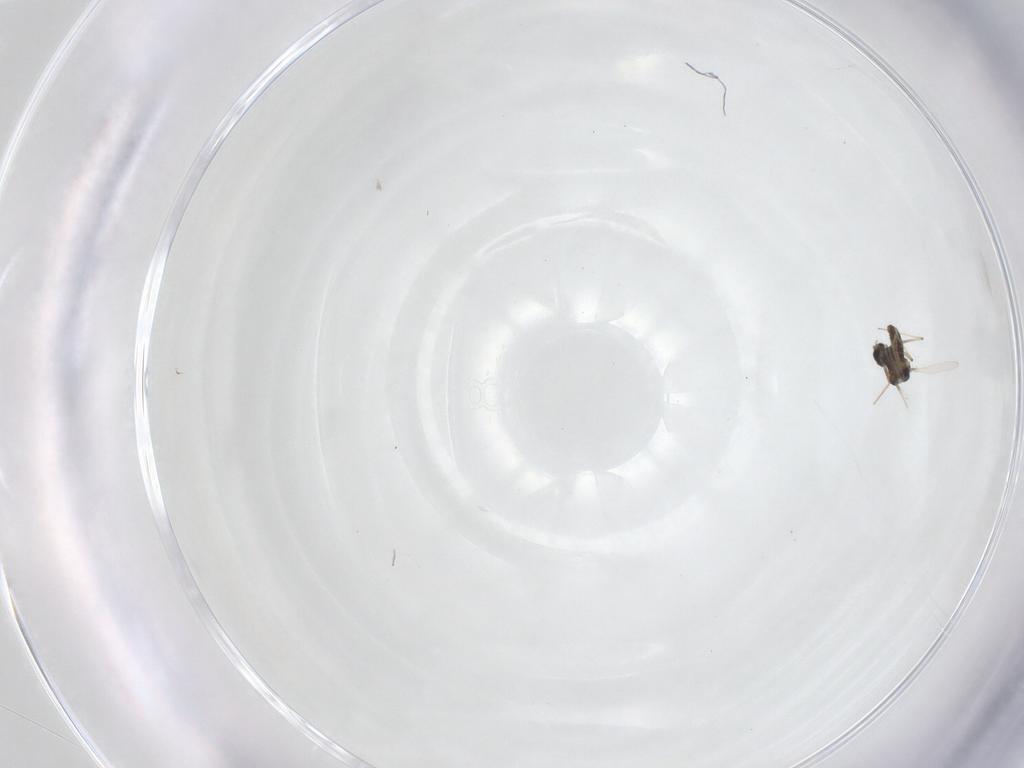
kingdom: Animalia
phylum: Arthropoda
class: Insecta
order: Diptera
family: Chironomidae
